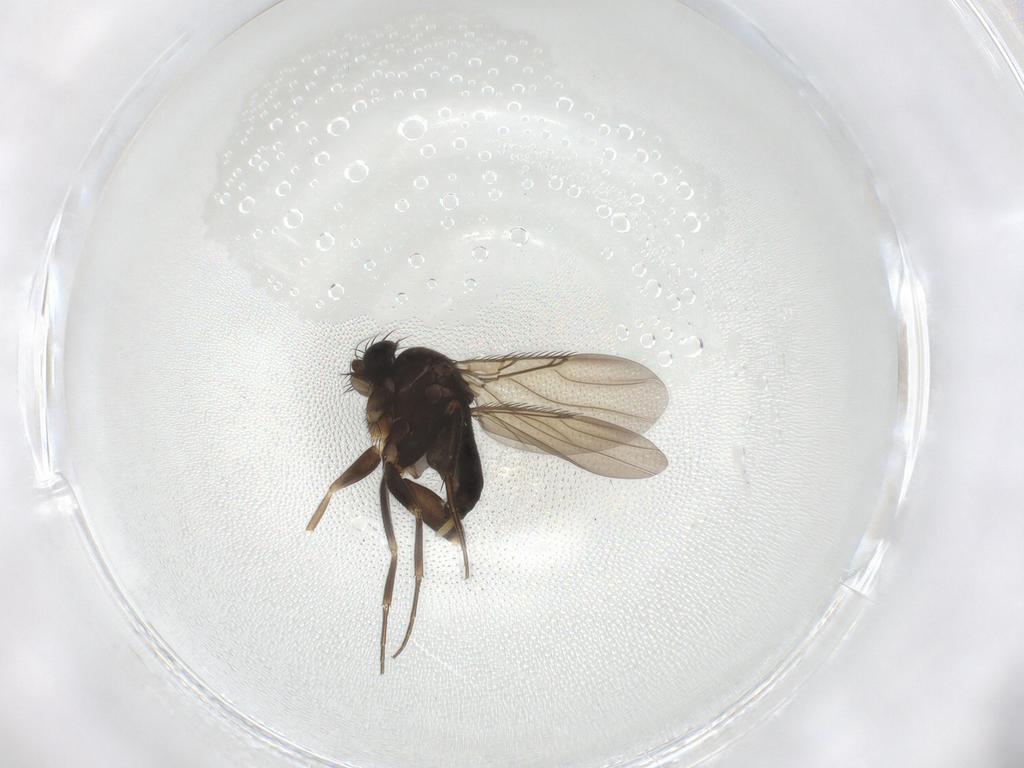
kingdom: Animalia
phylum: Arthropoda
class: Insecta
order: Diptera
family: Phoridae
